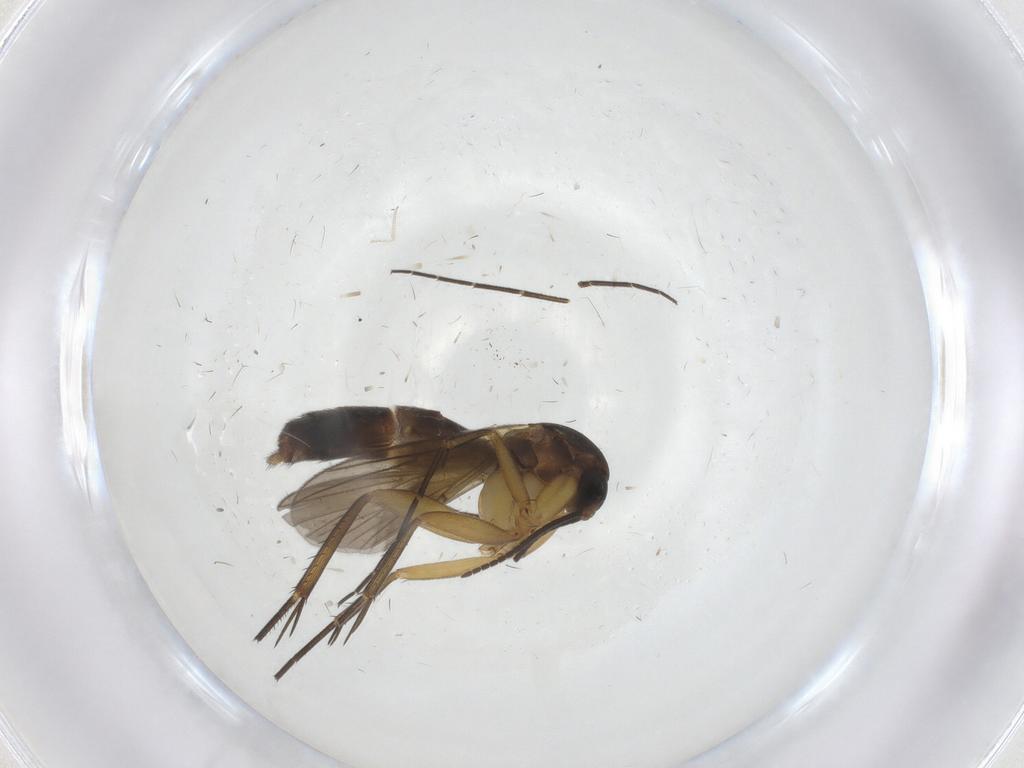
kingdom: Animalia
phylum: Arthropoda
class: Insecta
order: Diptera
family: Mycetophilidae
